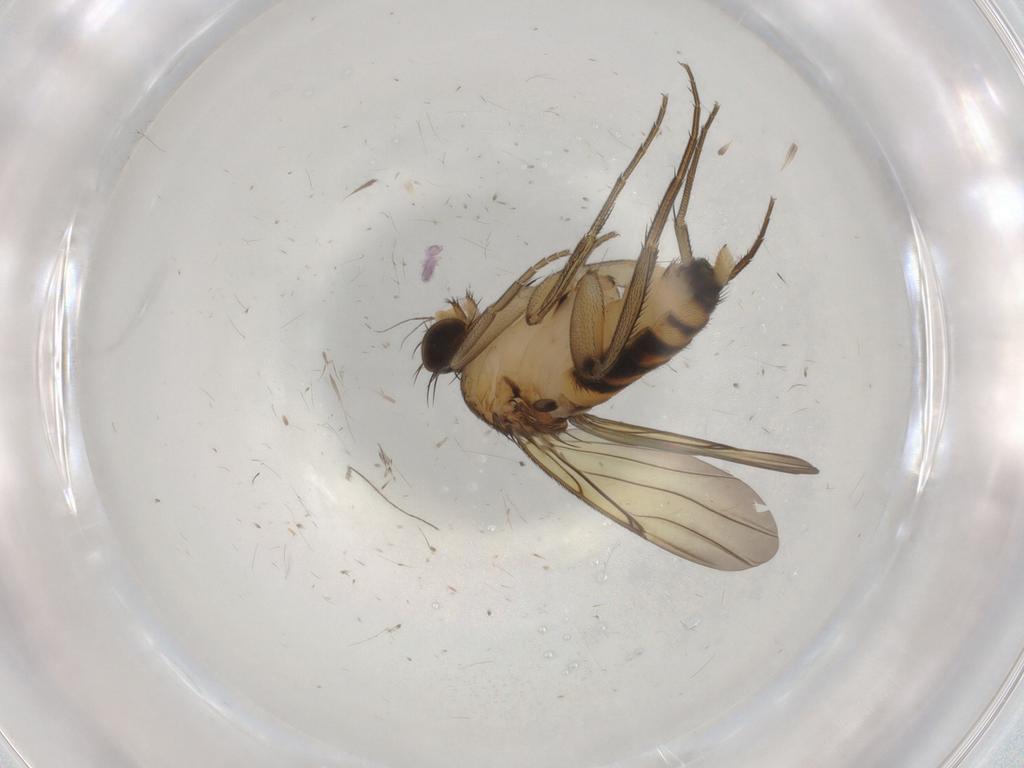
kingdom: Animalia
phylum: Arthropoda
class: Insecta
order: Diptera
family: Phoridae
